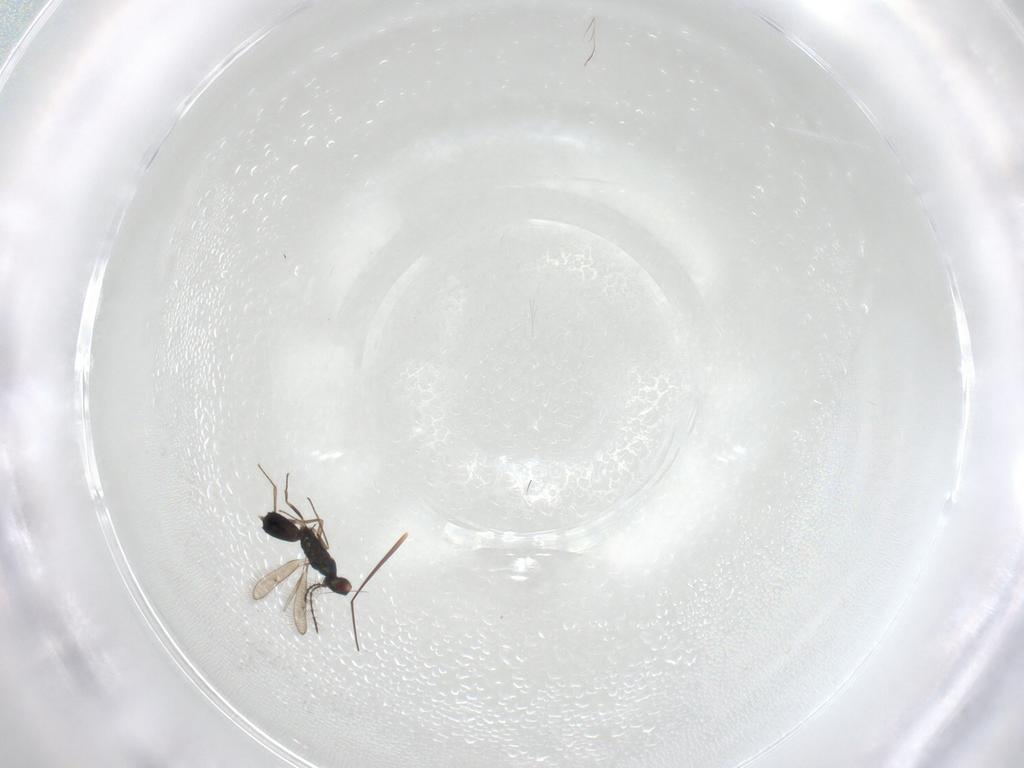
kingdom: Animalia
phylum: Arthropoda
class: Insecta
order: Hymenoptera
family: Pteromalidae
